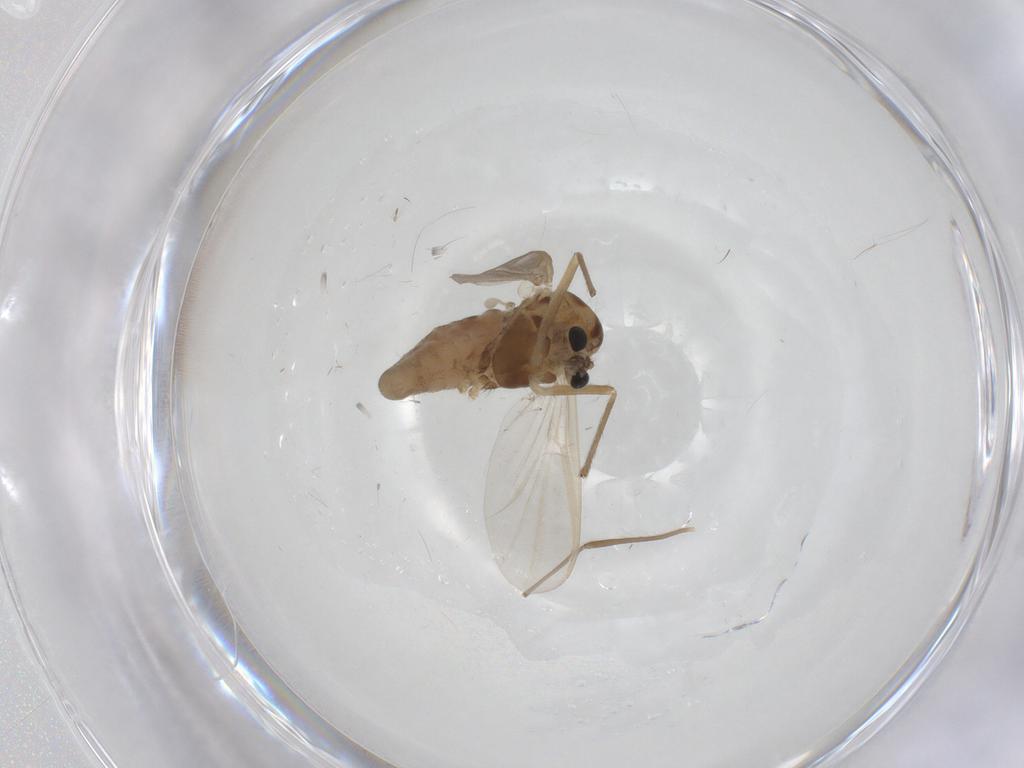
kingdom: Animalia
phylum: Arthropoda
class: Insecta
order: Diptera
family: Chironomidae
